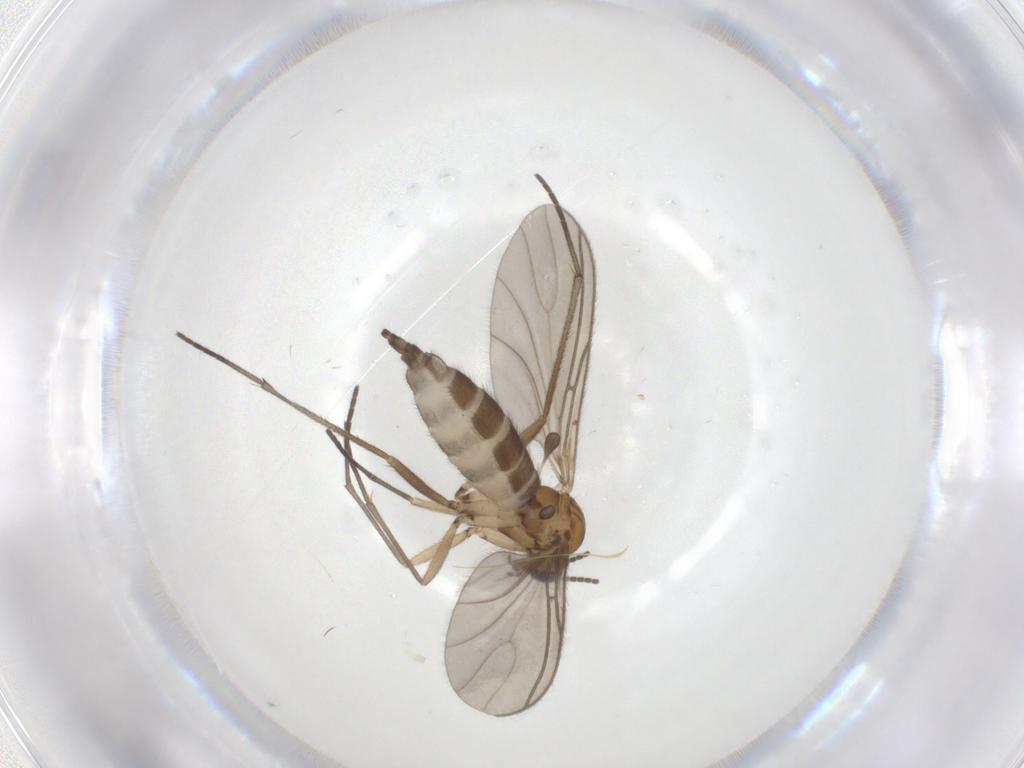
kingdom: Animalia
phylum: Arthropoda
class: Insecta
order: Diptera
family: Sciaridae
